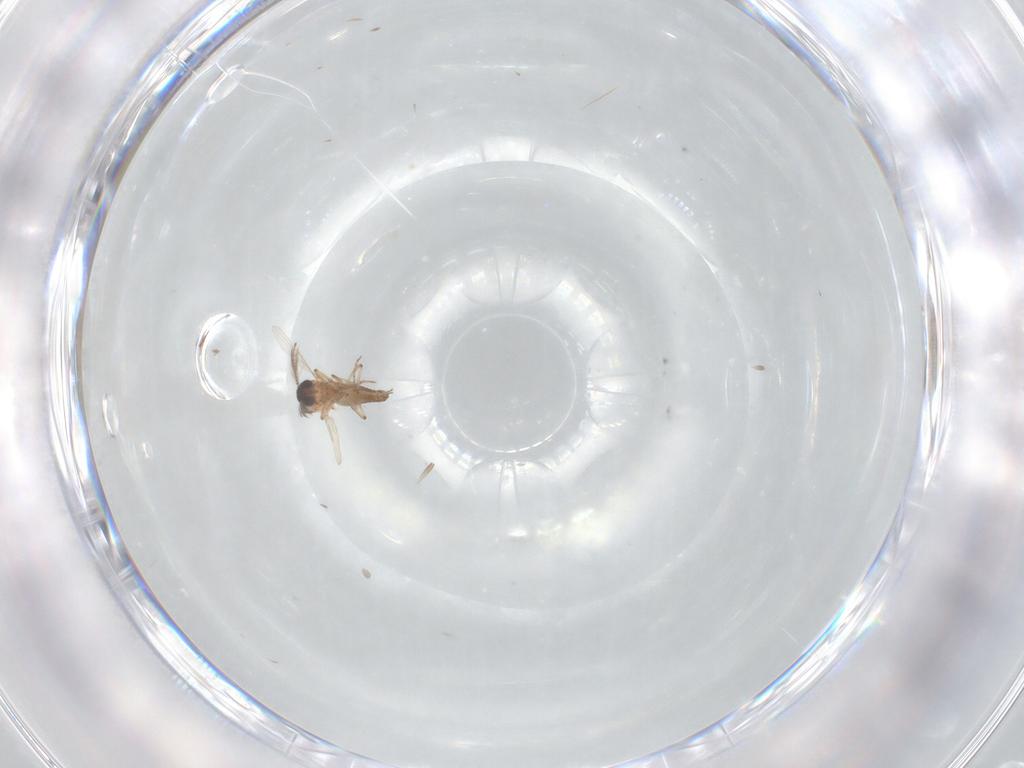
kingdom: Animalia
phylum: Arthropoda
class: Insecta
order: Diptera
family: Ceratopogonidae
